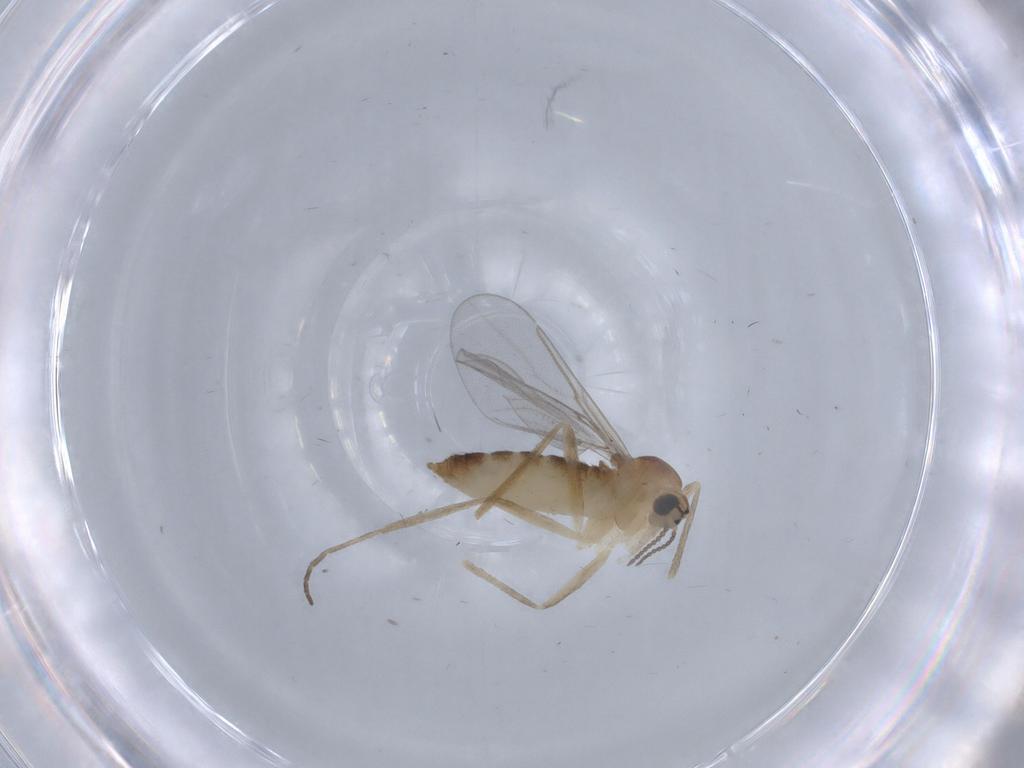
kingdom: Animalia
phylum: Arthropoda
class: Insecta
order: Diptera
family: Cecidomyiidae
